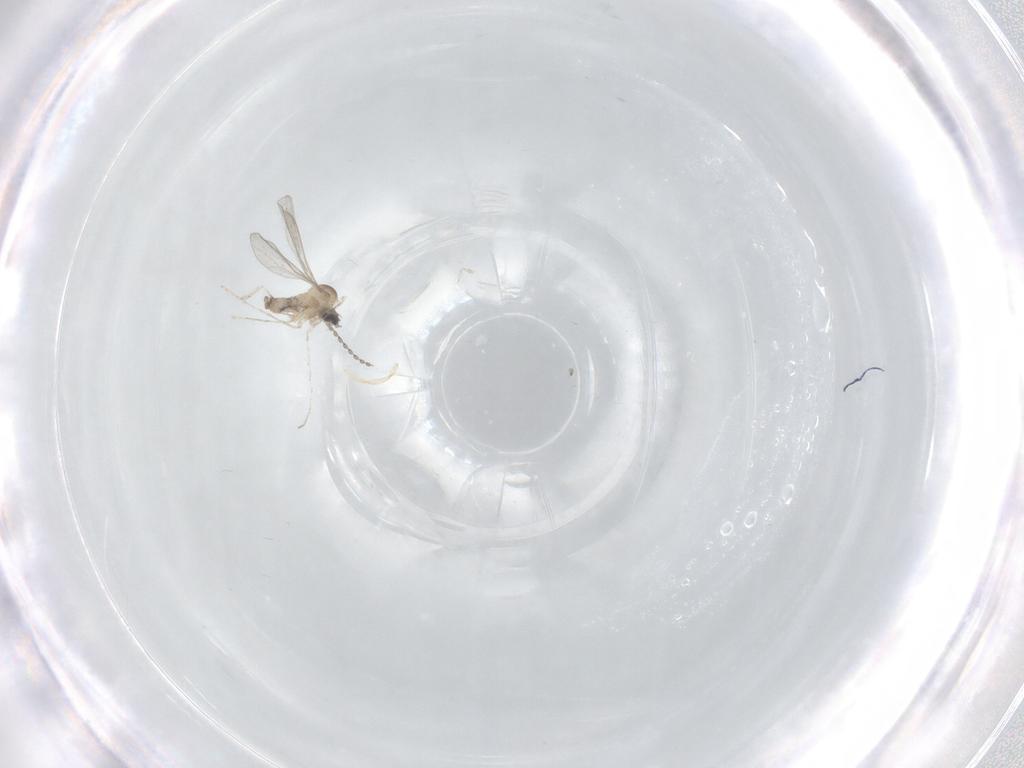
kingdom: Animalia
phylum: Arthropoda
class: Insecta
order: Diptera
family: Cecidomyiidae
